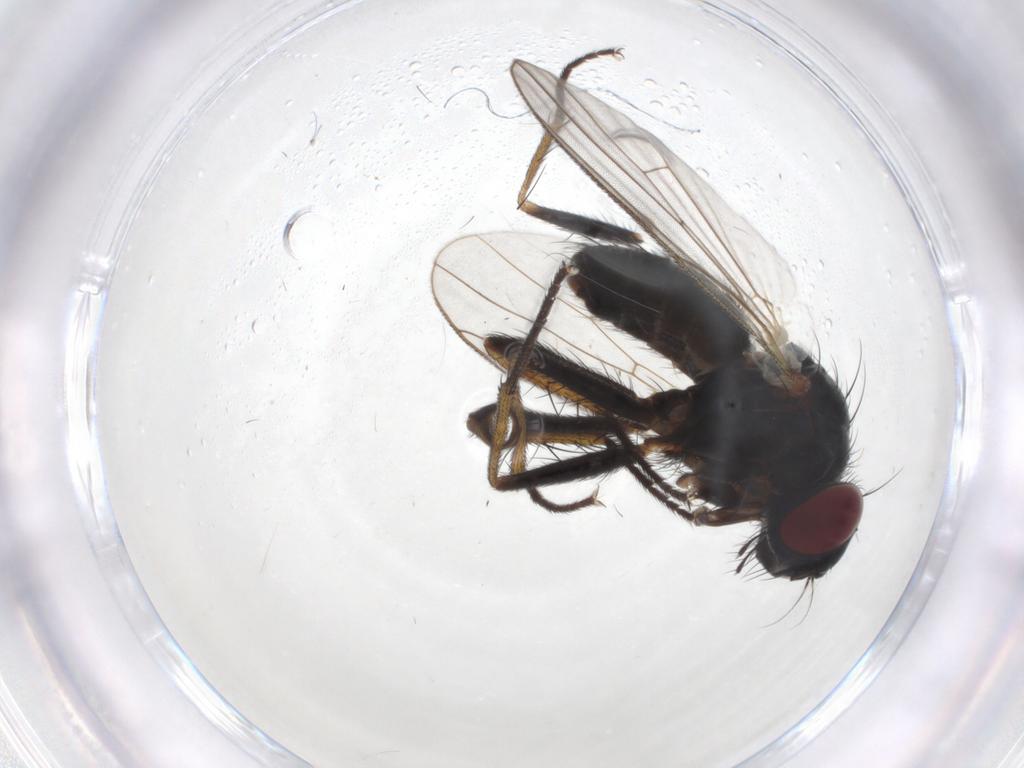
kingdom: Animalia
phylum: Arthropoda
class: Insecta
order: Diptera
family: Muscidae
